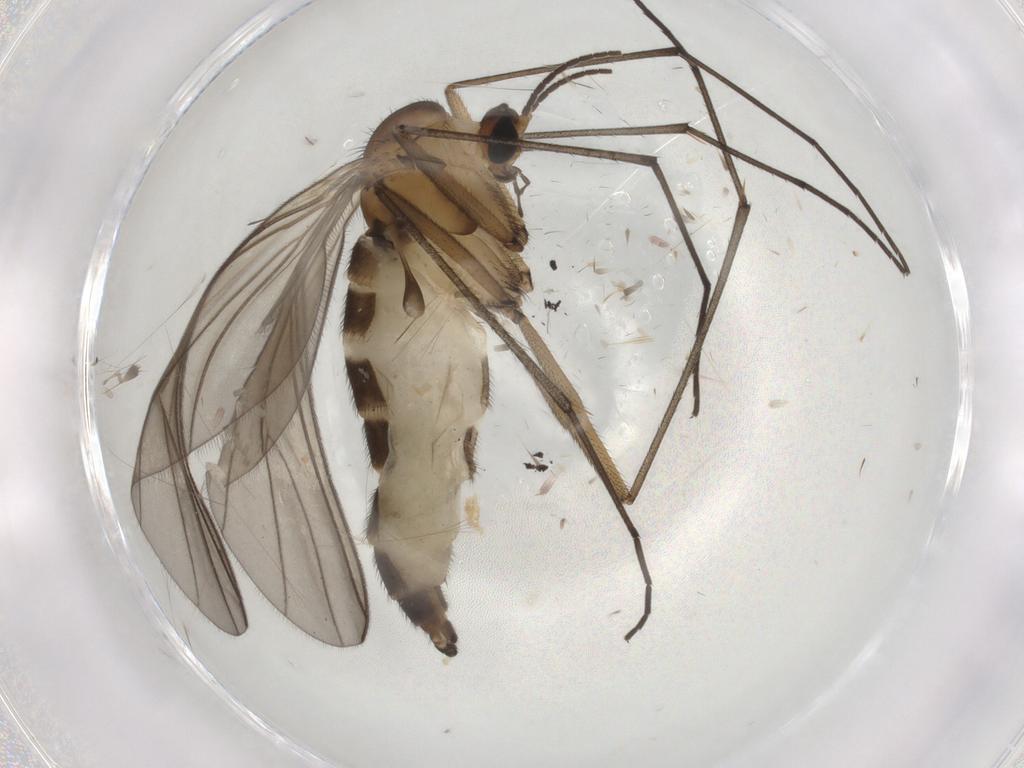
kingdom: Animalia
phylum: Arthropoda
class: Insecta
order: Diptera
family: Sciaridae
